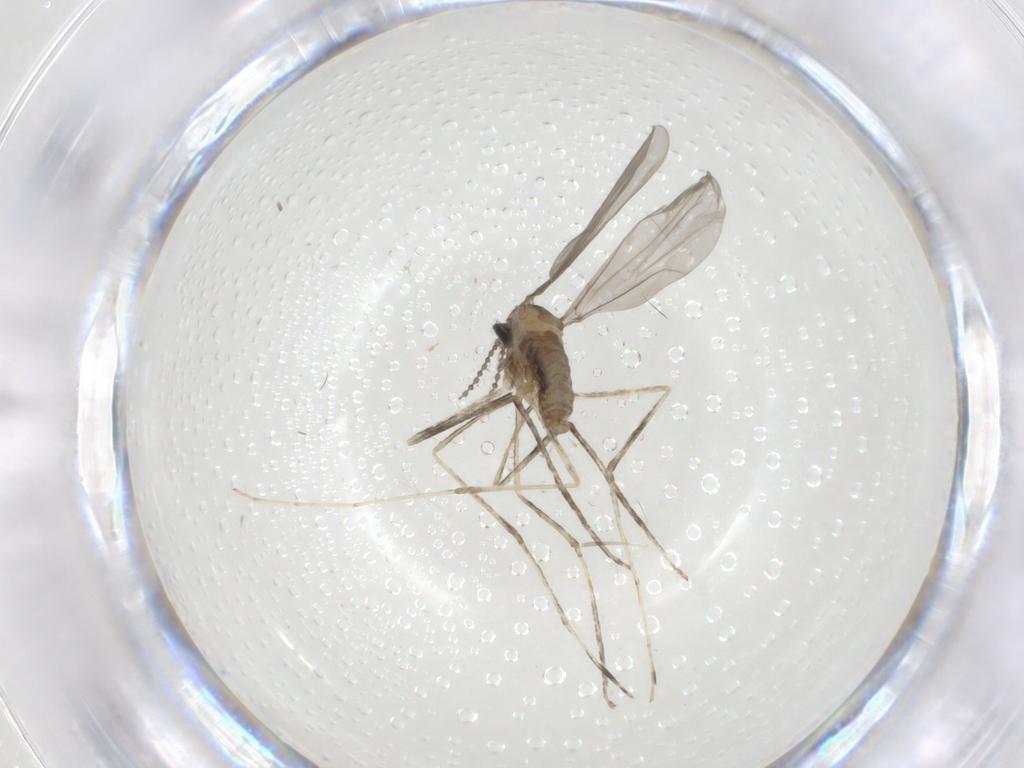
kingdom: Animalia
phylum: Arthropoda
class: Insecta
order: Diptera
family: Cecidomyiidae
